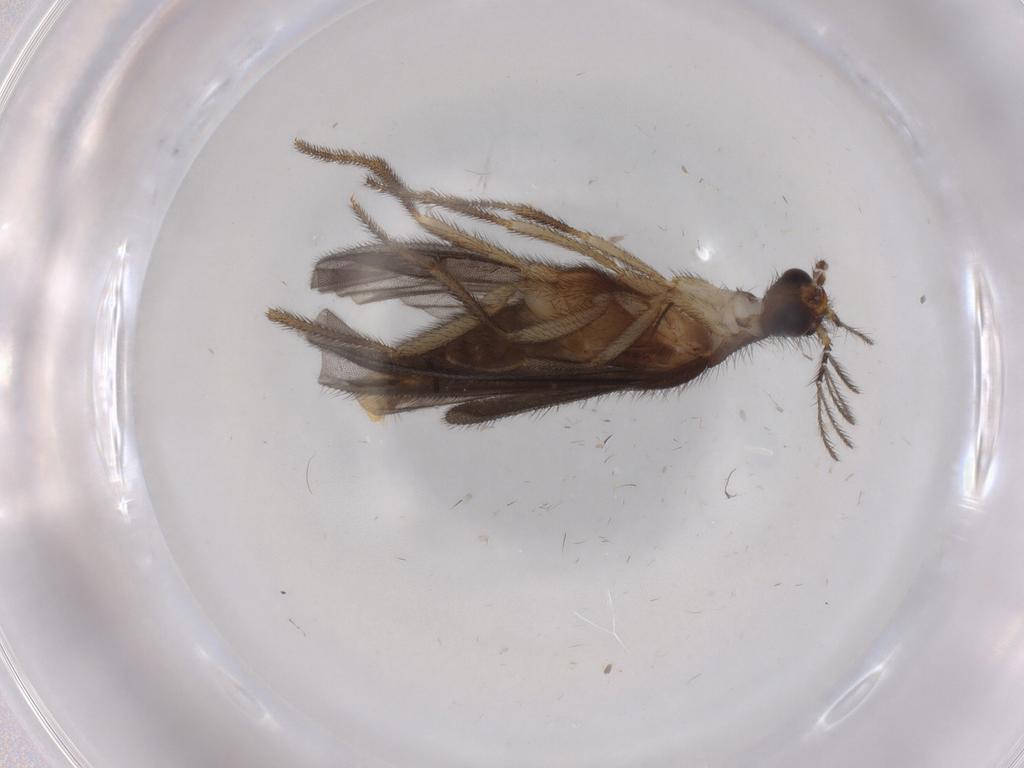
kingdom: Animalia
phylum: Arthropoda
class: Insecta
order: Coleoptera
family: Chrysomelidae
